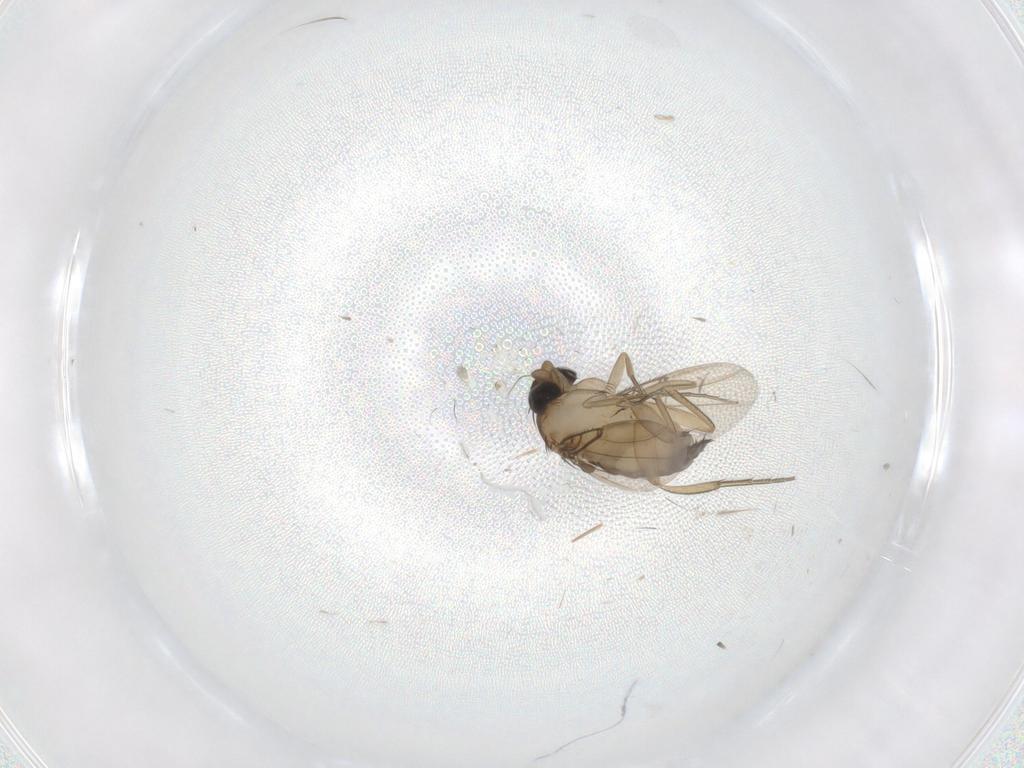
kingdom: Animalia
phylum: Arthropoda
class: Insecta
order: Diptera
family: Phoridae
